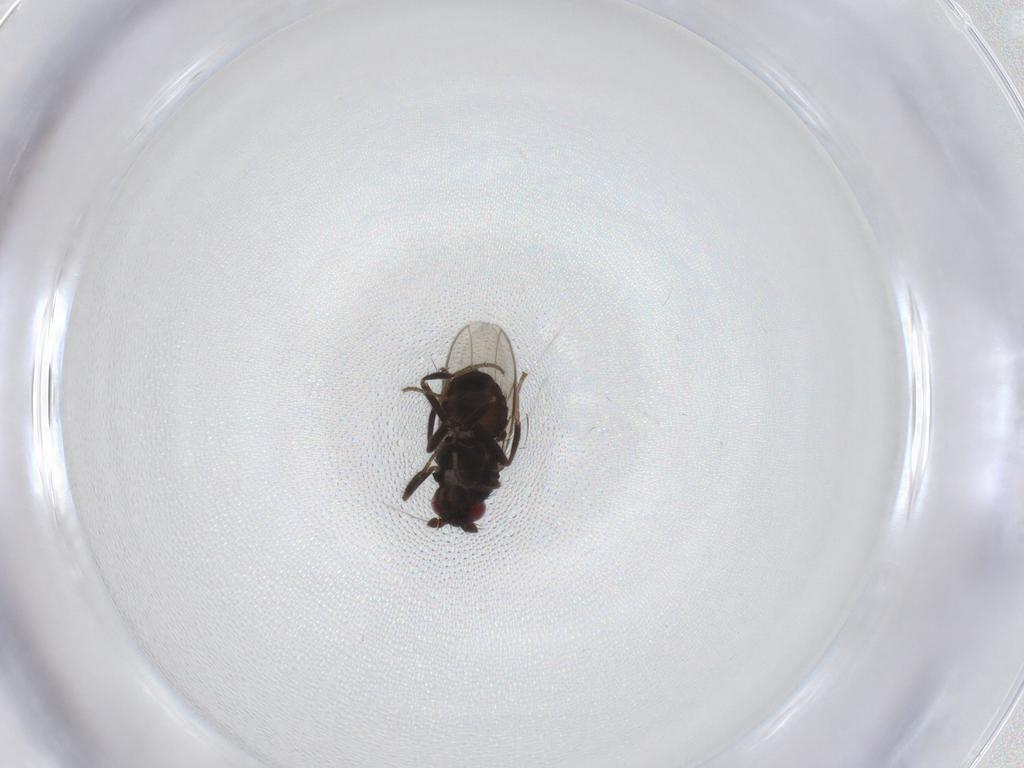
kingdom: Animalia
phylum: Arthropoda
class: Insecta
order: Diptera
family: Sphaeroceridae
